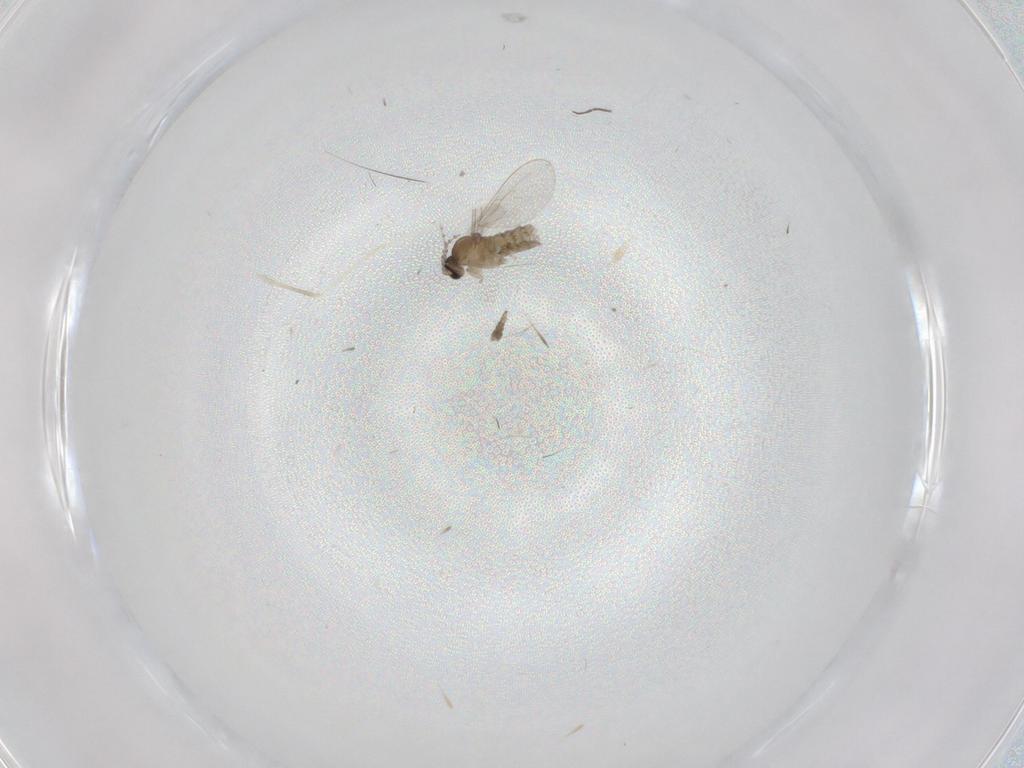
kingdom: Animalia
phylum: Arthropoda
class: Insecta
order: Diptera
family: Cecidomyiidae
